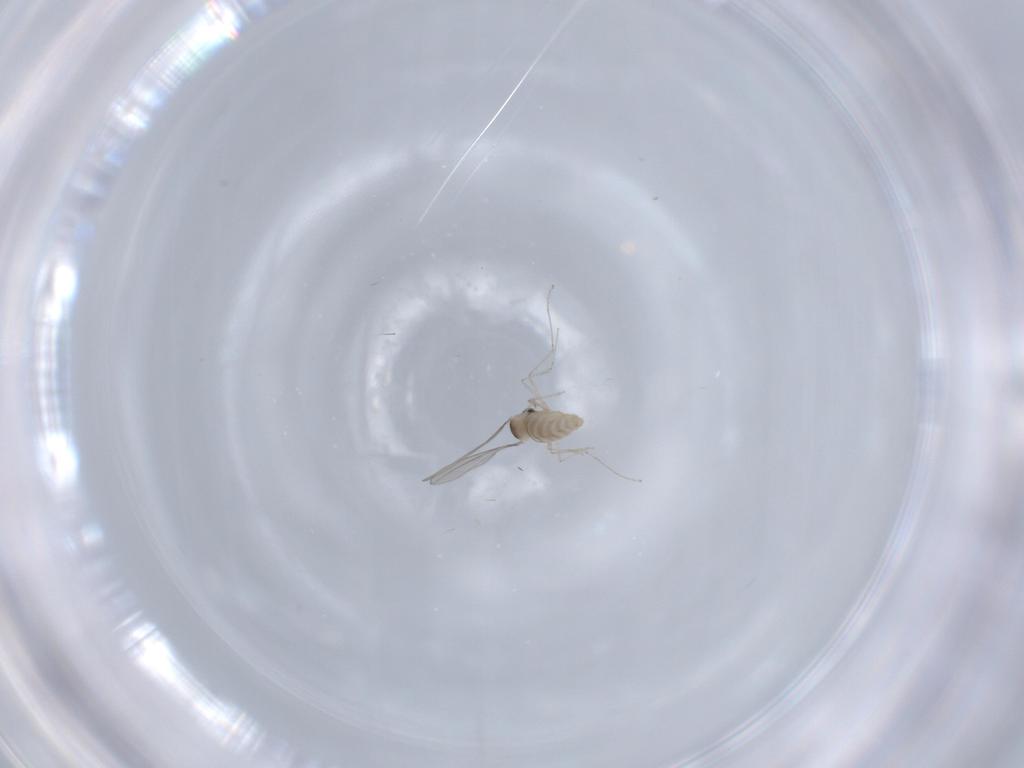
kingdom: Animalia
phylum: Arthropoda
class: Insecta
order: Diptera
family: Cecidomyiidae
